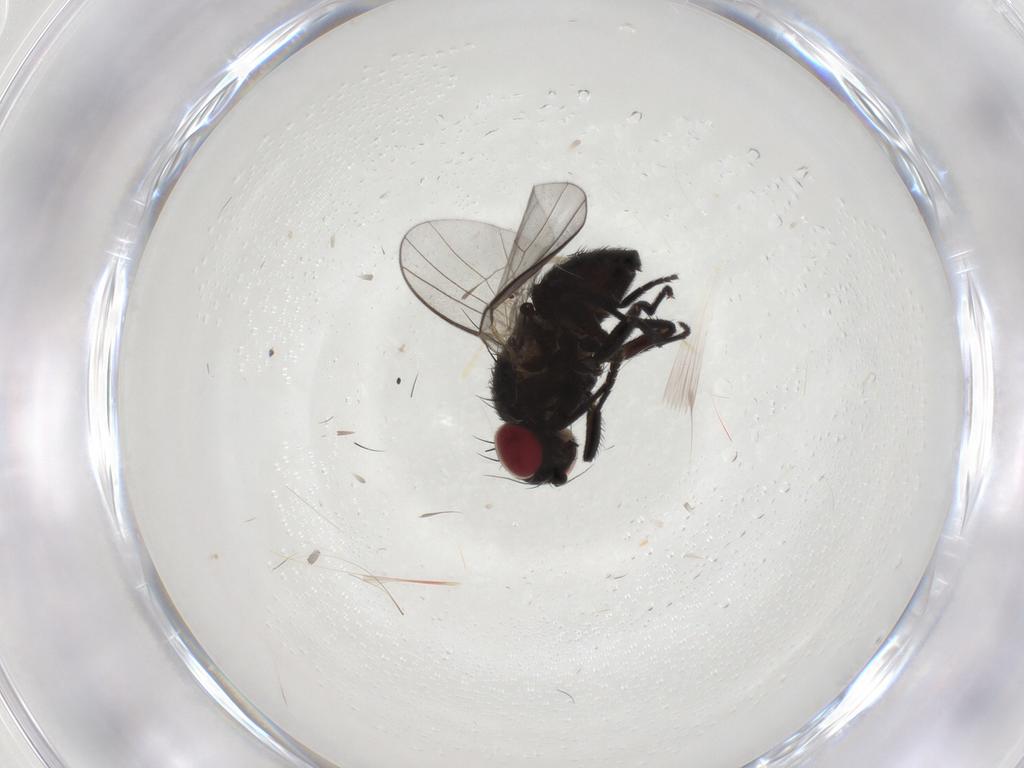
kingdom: Animalia
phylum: Arthropoda
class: Insecta
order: Diptera
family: Agromyzidae
